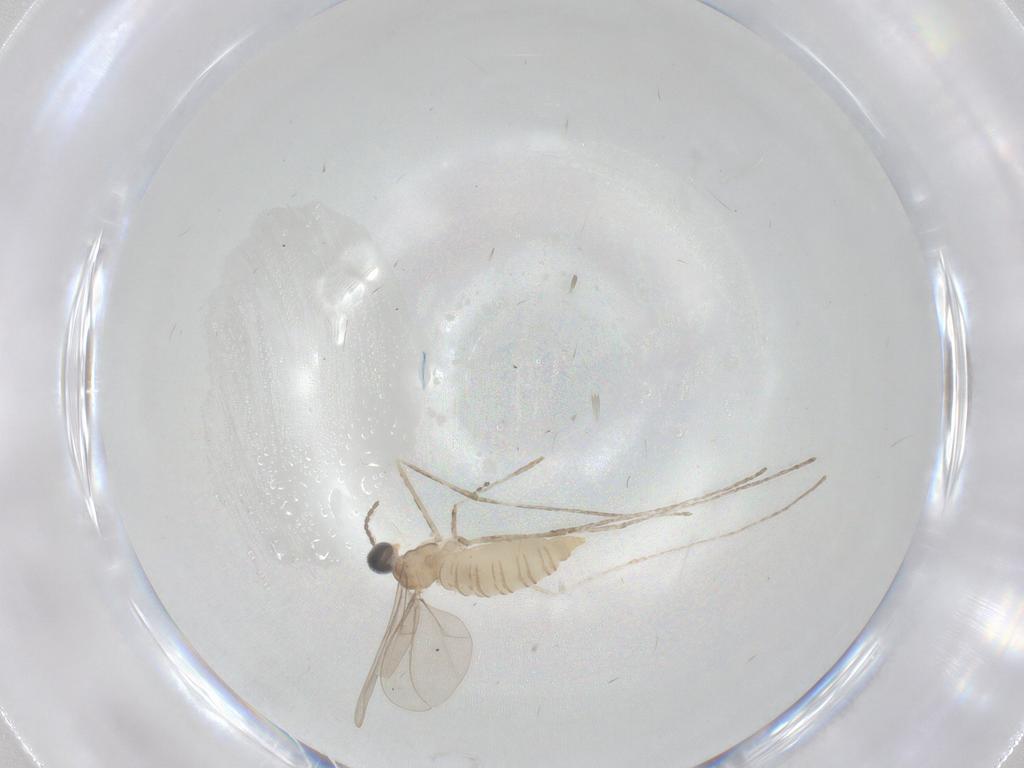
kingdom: Animalia
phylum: Arthropoda
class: Insecta
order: Diptera
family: Cecidomyiidae
